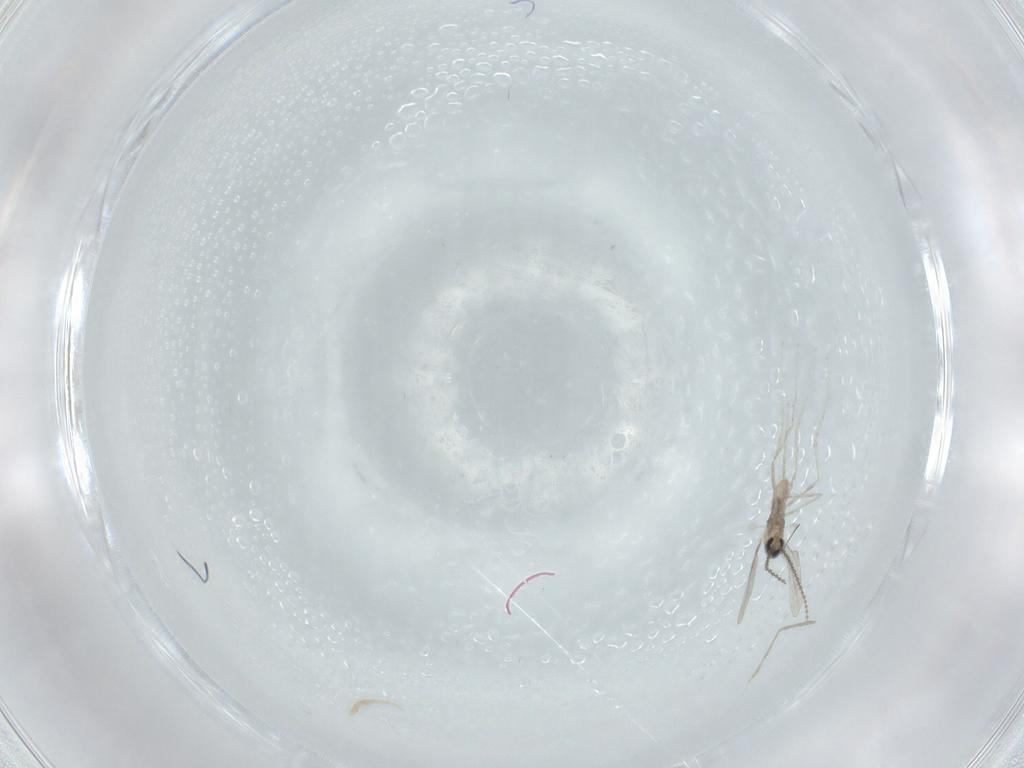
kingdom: Animalia
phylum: Arthropoda
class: Insecta
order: Diptera
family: Cecidomyiidae
